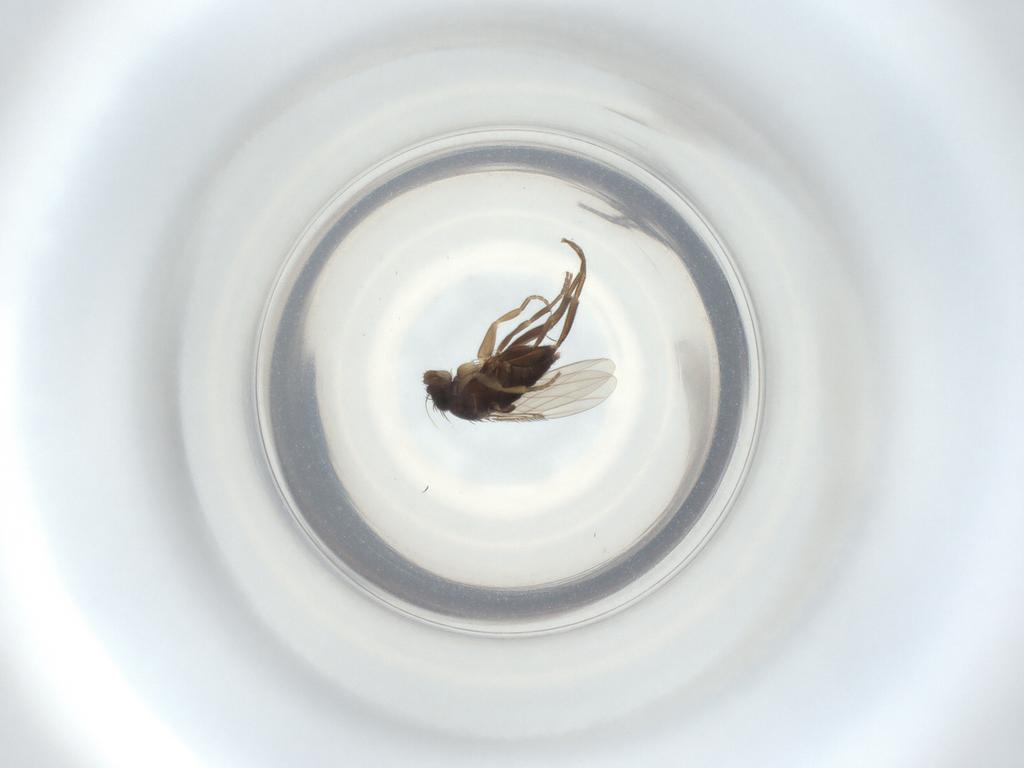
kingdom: Animalia
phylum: Arthropoda
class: Insecta
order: Diptera
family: Phoridae
